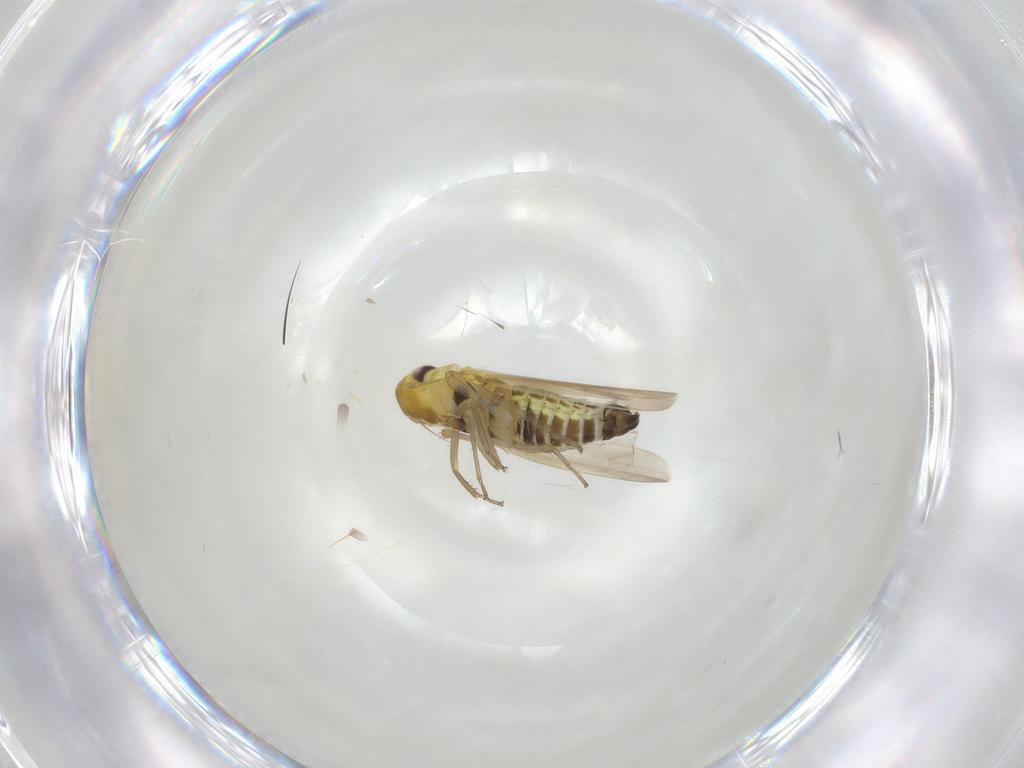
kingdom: Animalia
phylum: Arthropoda
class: Insecta
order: Hemiptera
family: Cicadellidae
